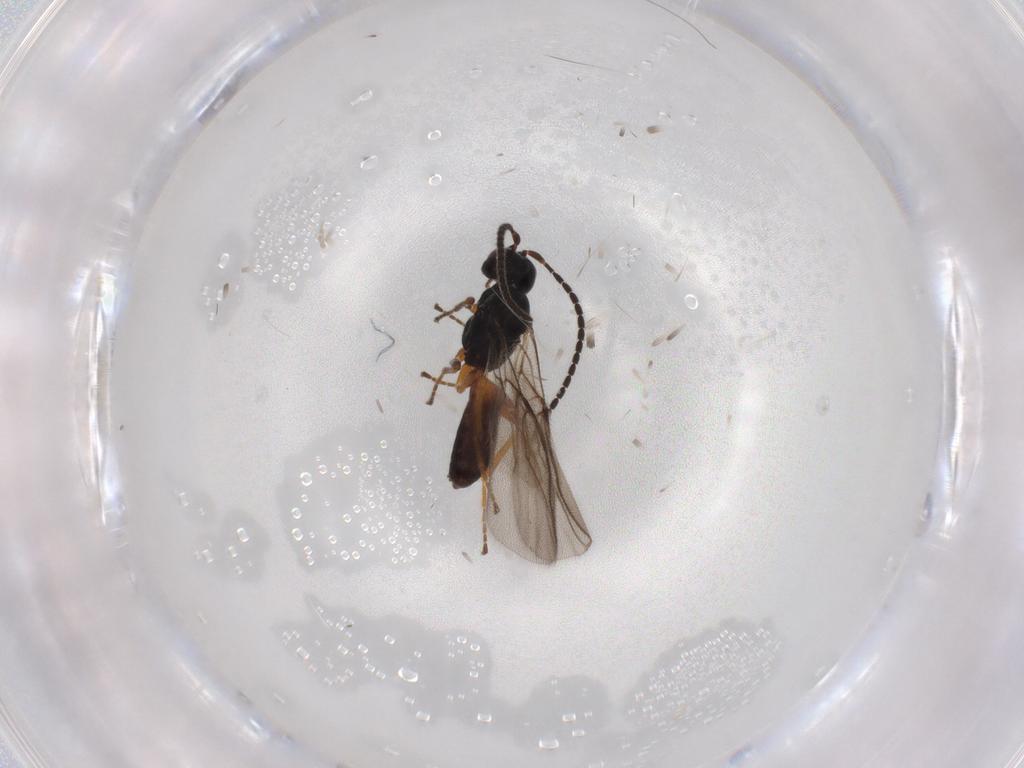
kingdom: Animalia
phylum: Arthropoda
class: Insecta
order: Hymenoptera
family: Braconidae
